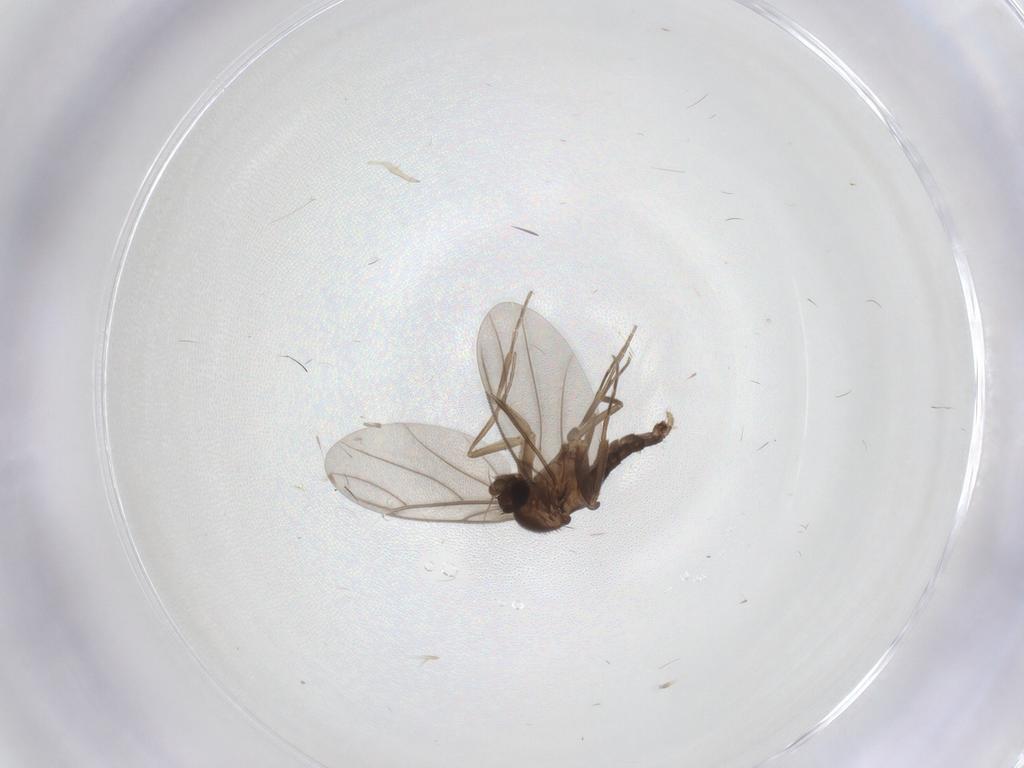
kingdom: Animalia
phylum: Arthropoda
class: Insecta
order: Diptera
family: Phoridae
